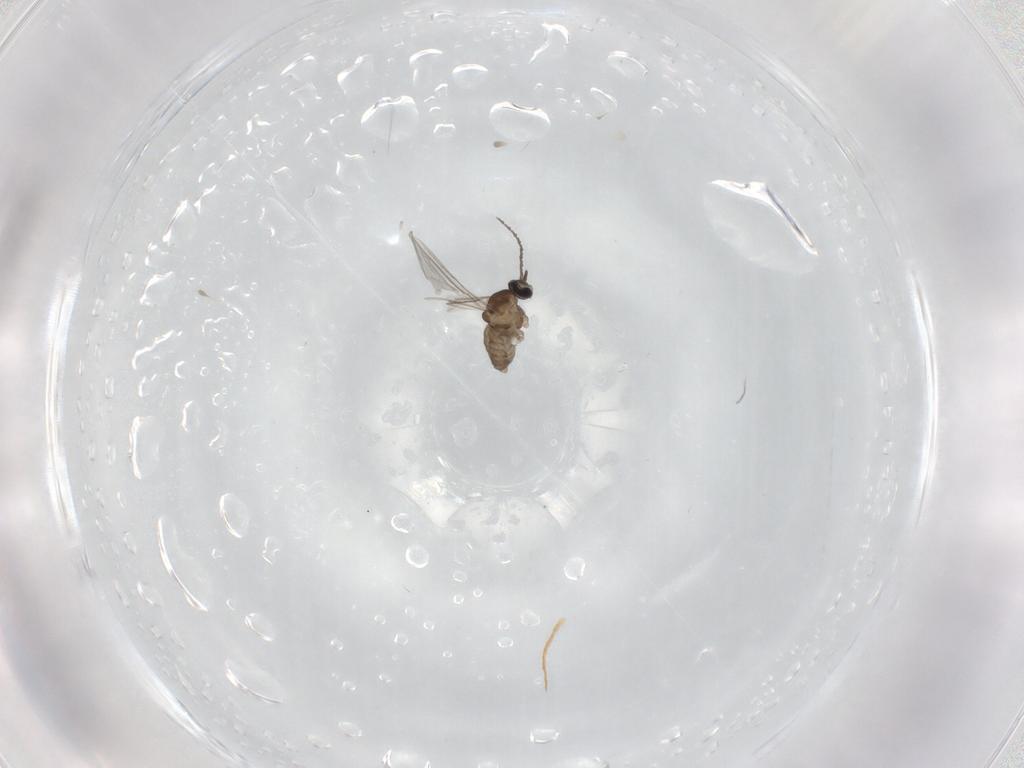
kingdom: Animalia
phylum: Arthropoda
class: Insecta
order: Diptera
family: Cecidomyiidae
